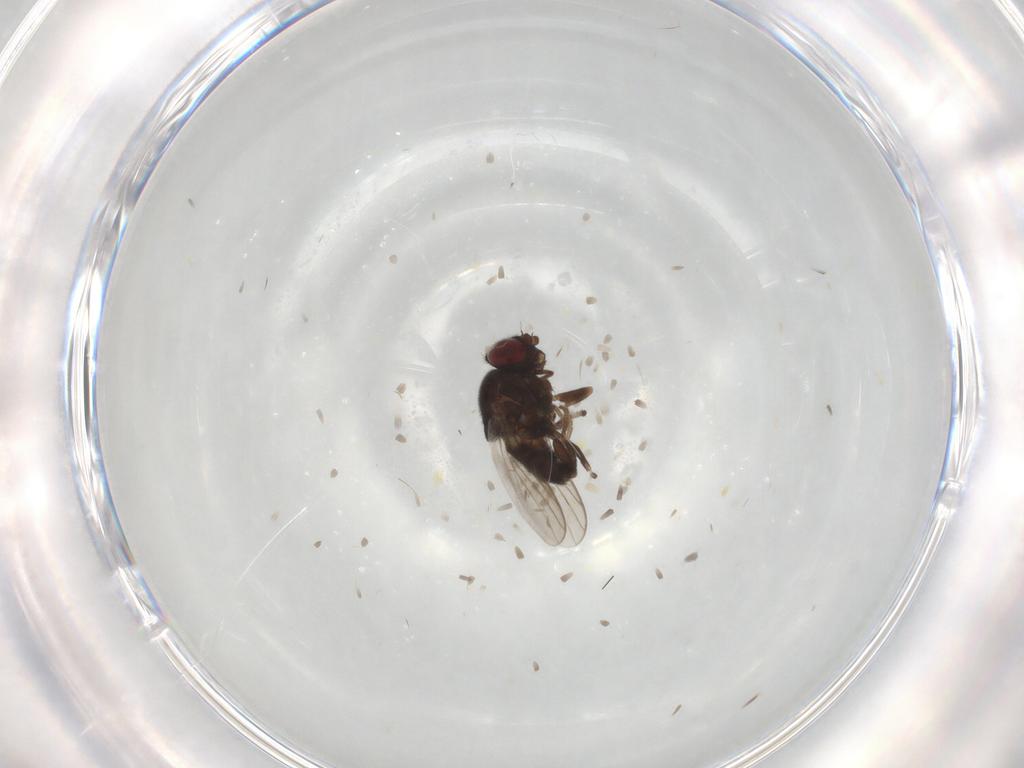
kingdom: Animalia
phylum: Arthropoda
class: Insecta
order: Diptera
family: Chloropidae
